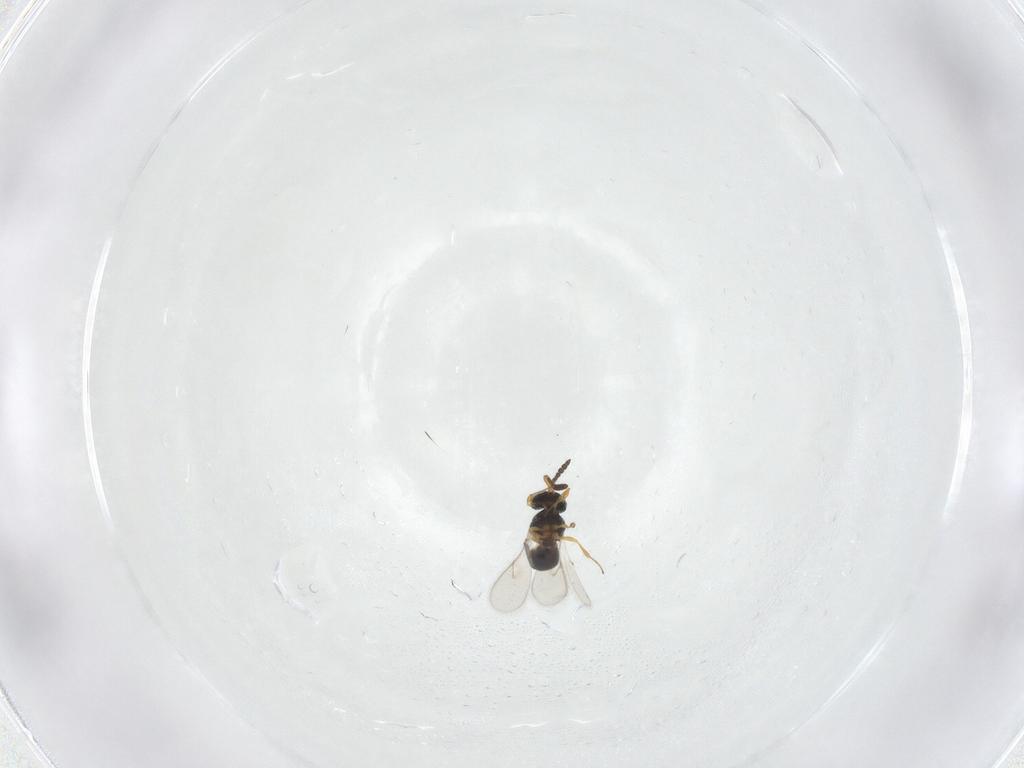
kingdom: Animalia
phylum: Arthropoda
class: Insecta
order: Hymenoptera
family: Scelionidae
